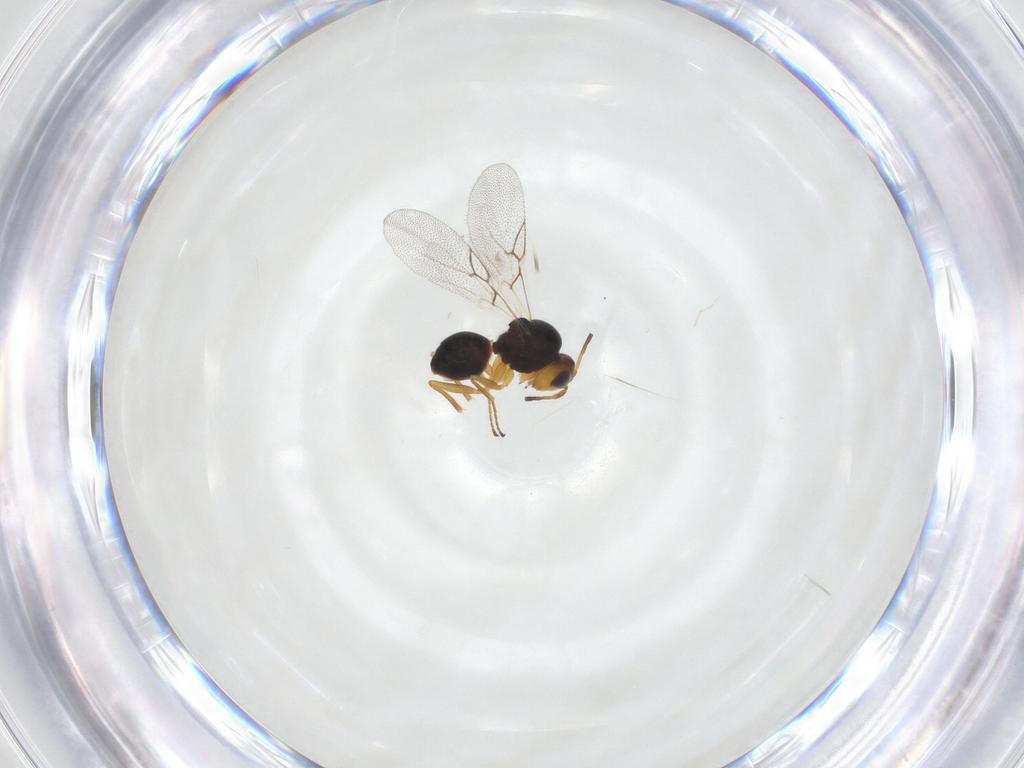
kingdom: Animalia
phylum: Arthropoda
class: Insecta
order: Hymenoptera
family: Figitidae
